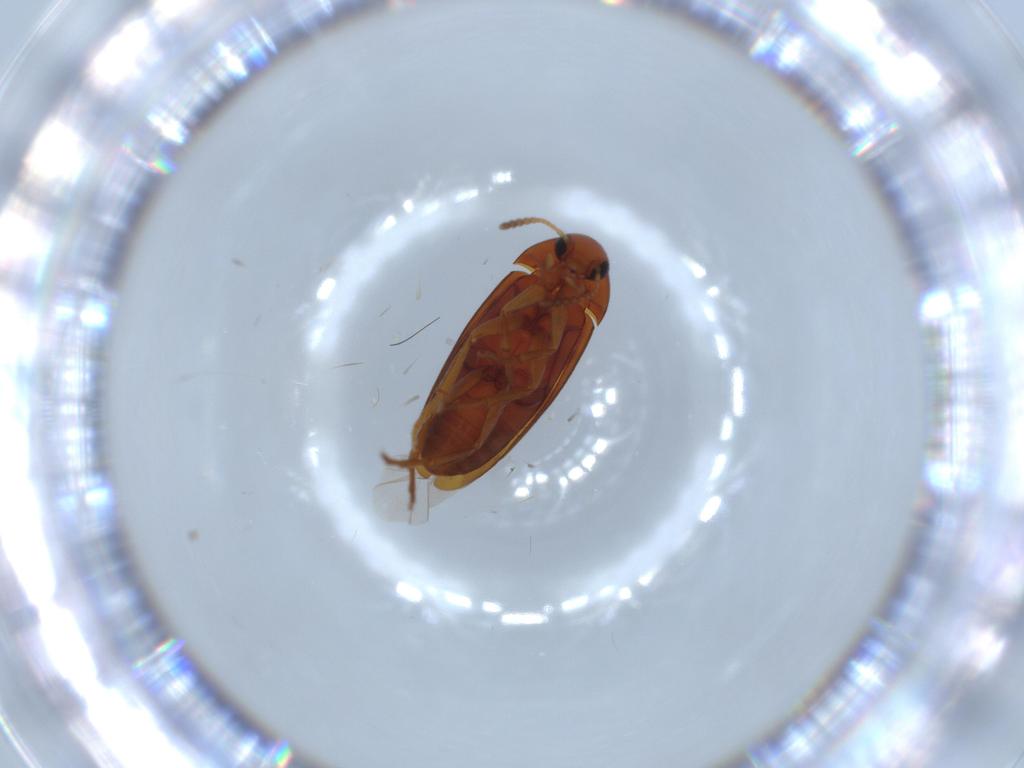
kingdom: Animalia
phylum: Arthropoda
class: Insecta
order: Coleoptera
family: Scraptiidae
